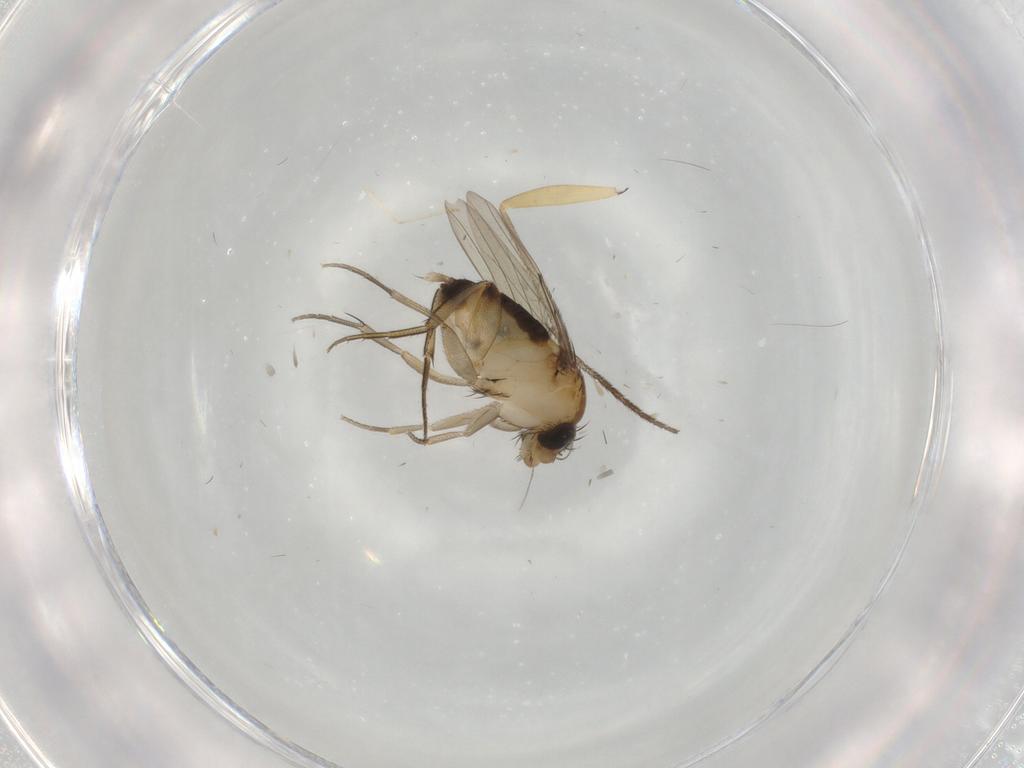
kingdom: Animalia
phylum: Arthropoda
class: Insecta
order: Diptera
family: Phoridae
